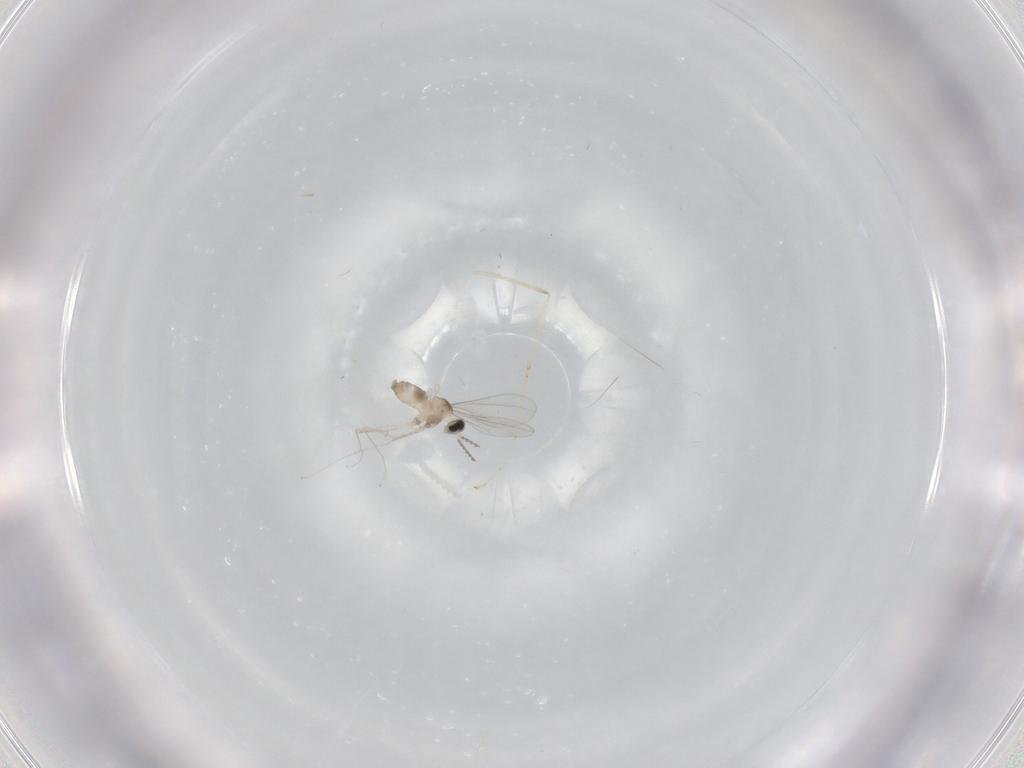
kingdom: Animalia
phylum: Arthropoda
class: Insecta
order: Diptera
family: Cecidomyiidae
